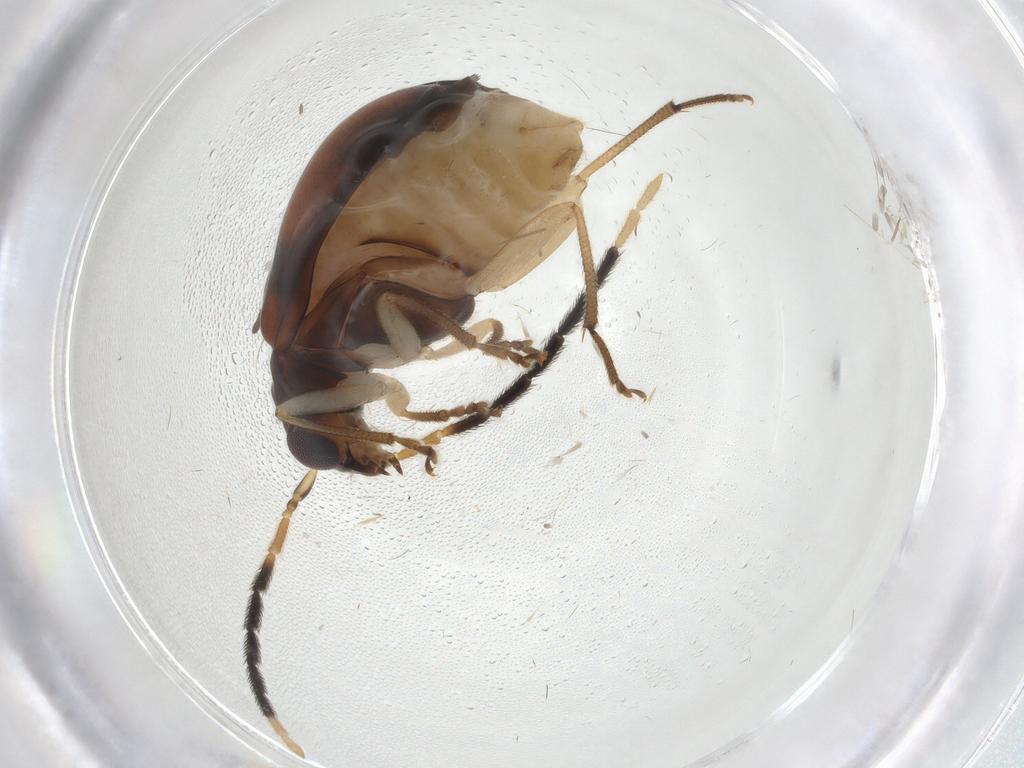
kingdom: Animalia
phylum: Arthropoda
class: Insecta
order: Coleoptera
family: Chrysomelidae
